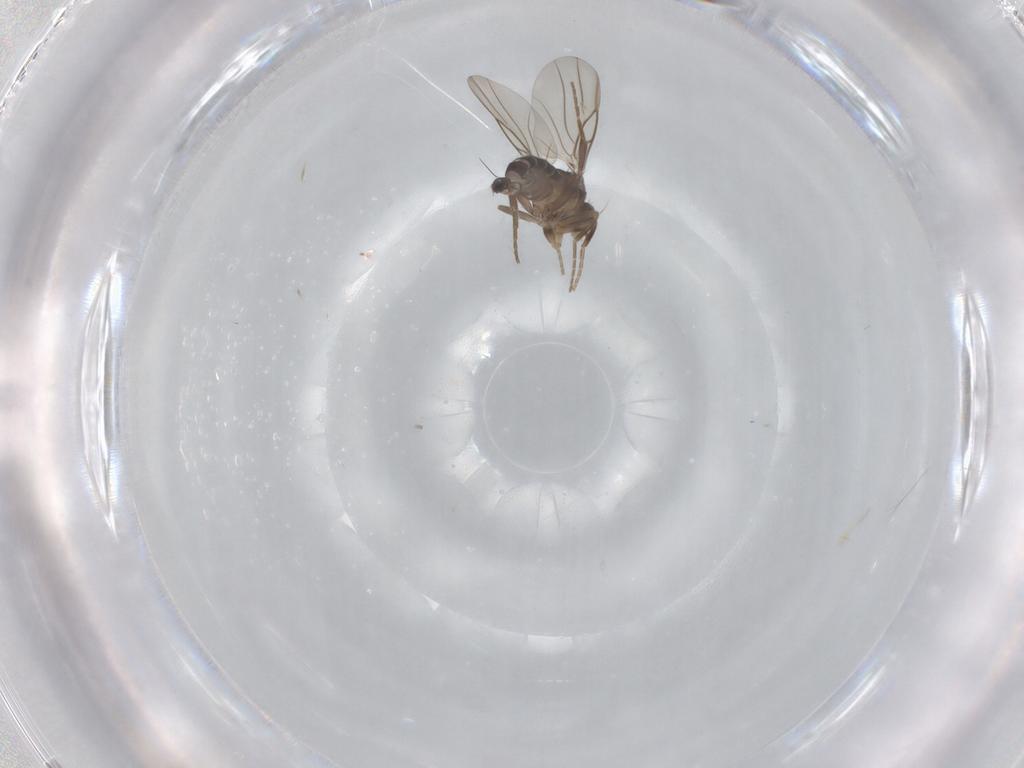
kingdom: Animalia
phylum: Arthropoda
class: Insecta
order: Diptera
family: Phoridae
